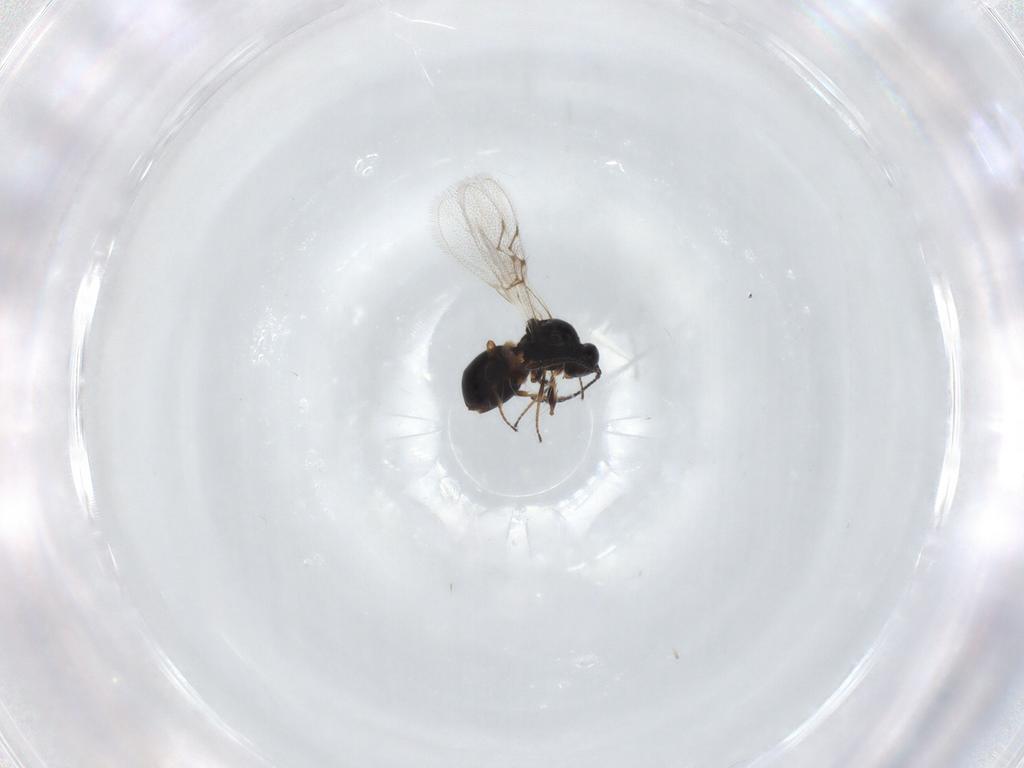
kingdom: Animalia
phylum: Arthropoda
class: Insecta
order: Hymenoptera
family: Figitidae
